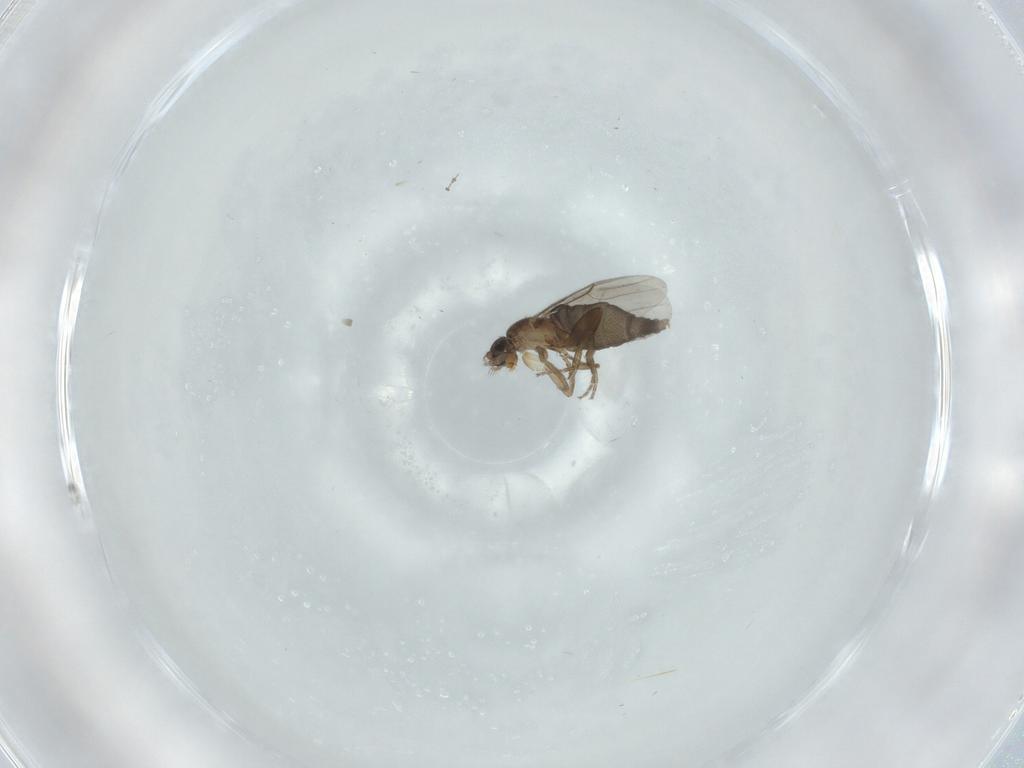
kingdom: Animalia
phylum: Arthropoda
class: Insecta
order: Diptera
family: Phoridae
